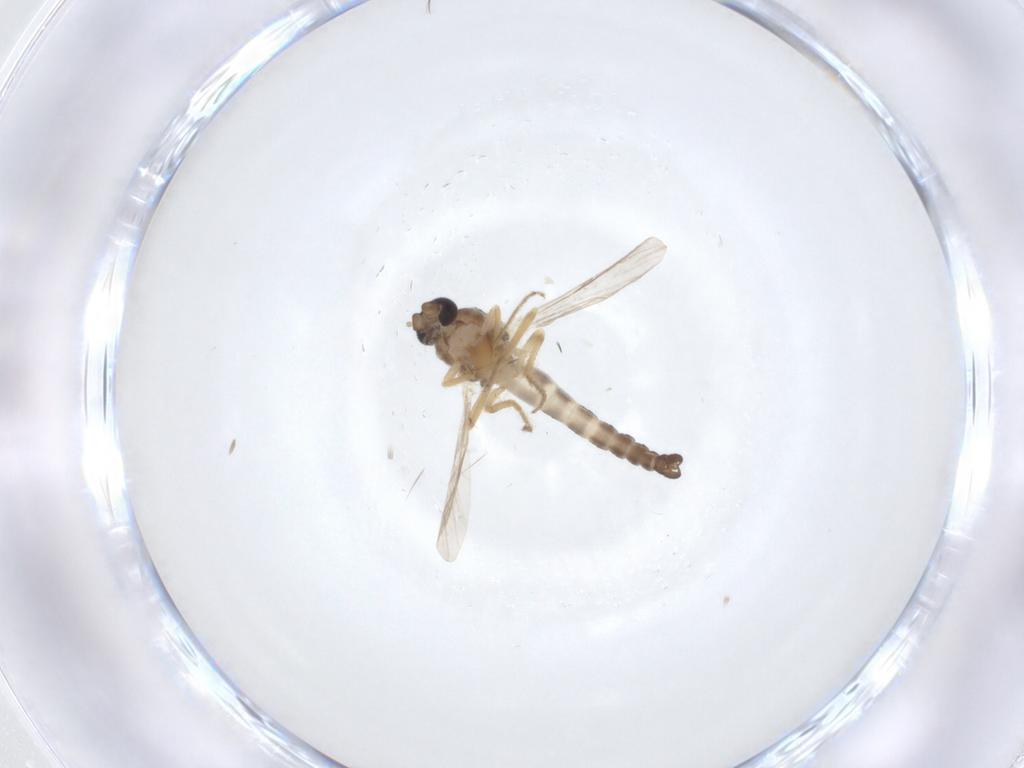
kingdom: Animalia
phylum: Arthropoda
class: Insecta
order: Diptera
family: Ceratopogonidae
